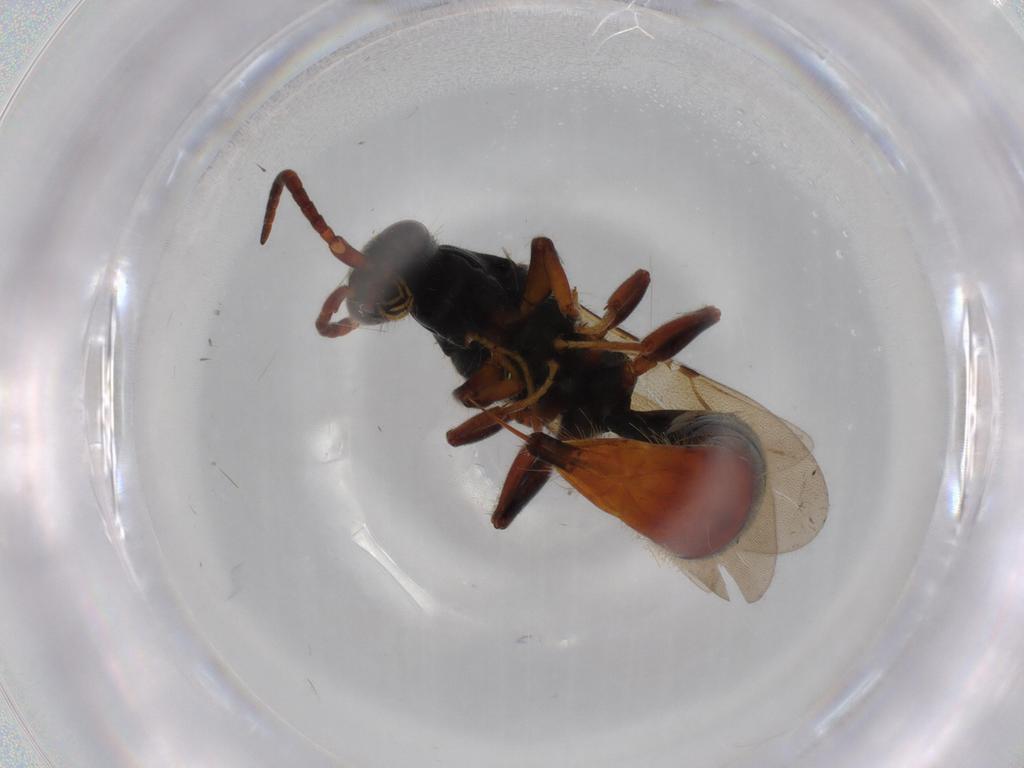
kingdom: Animalia
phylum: Arthropoda
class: Insecta
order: Hymenoptera
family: Bethylidae
